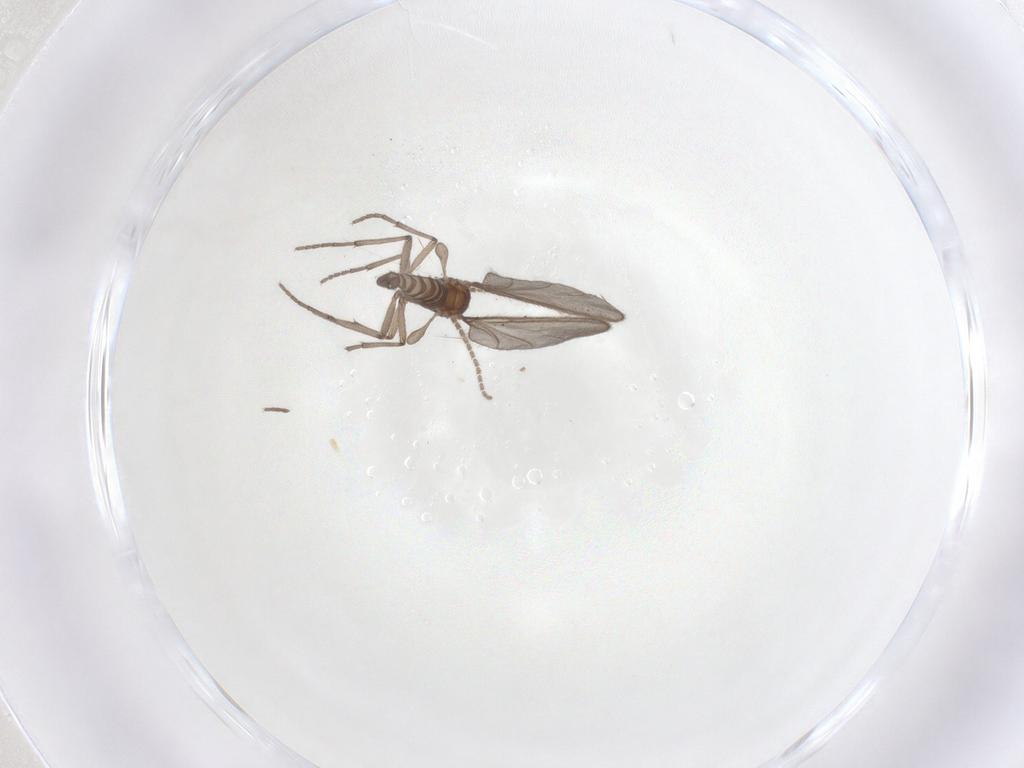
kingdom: Animalia
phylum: Arthropoda
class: Insecta
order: Diptera
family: Sciaridae
